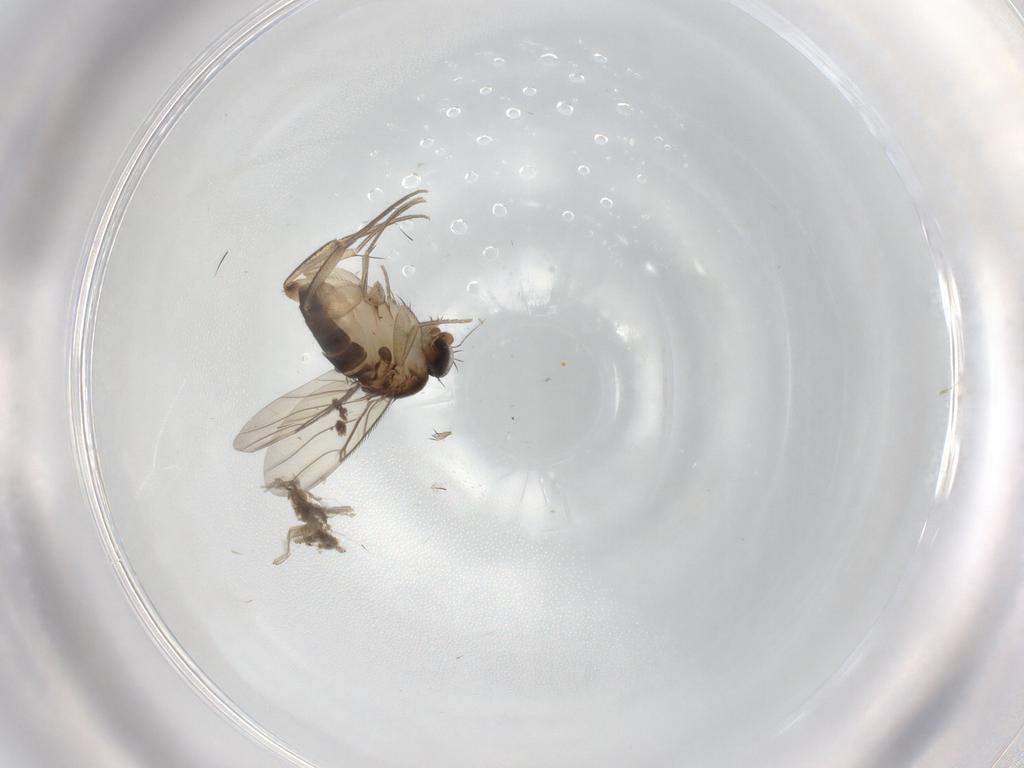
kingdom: Animalia
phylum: Arthropoda
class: Insecta
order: Diptera
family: Phoridae
